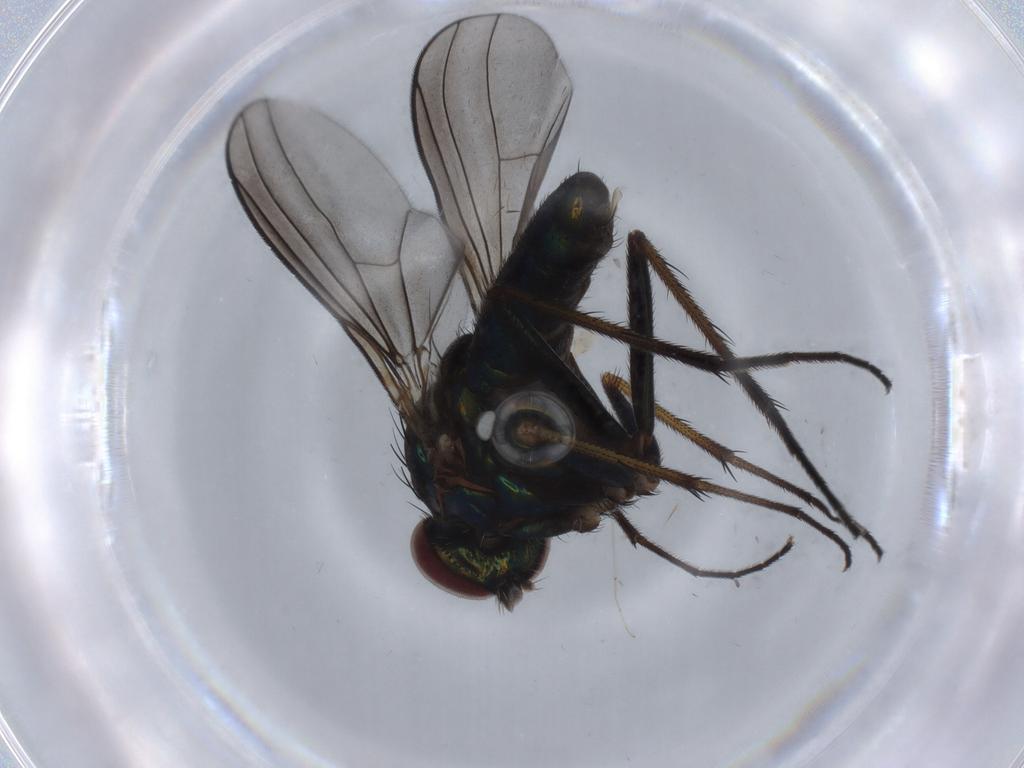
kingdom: Animalia
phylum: Arthropoda
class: Insecta
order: Diptera
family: Dolichopodidae
